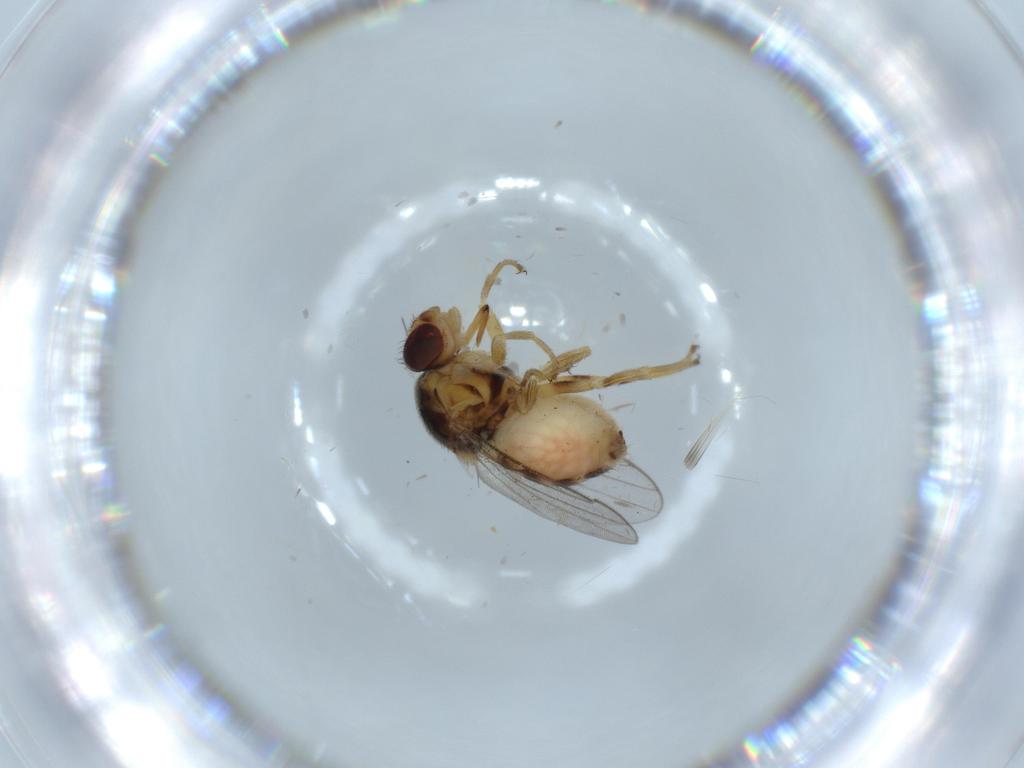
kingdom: Animalia
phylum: Arthropoda
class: Insecta
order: Diptera
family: Chloropidae
